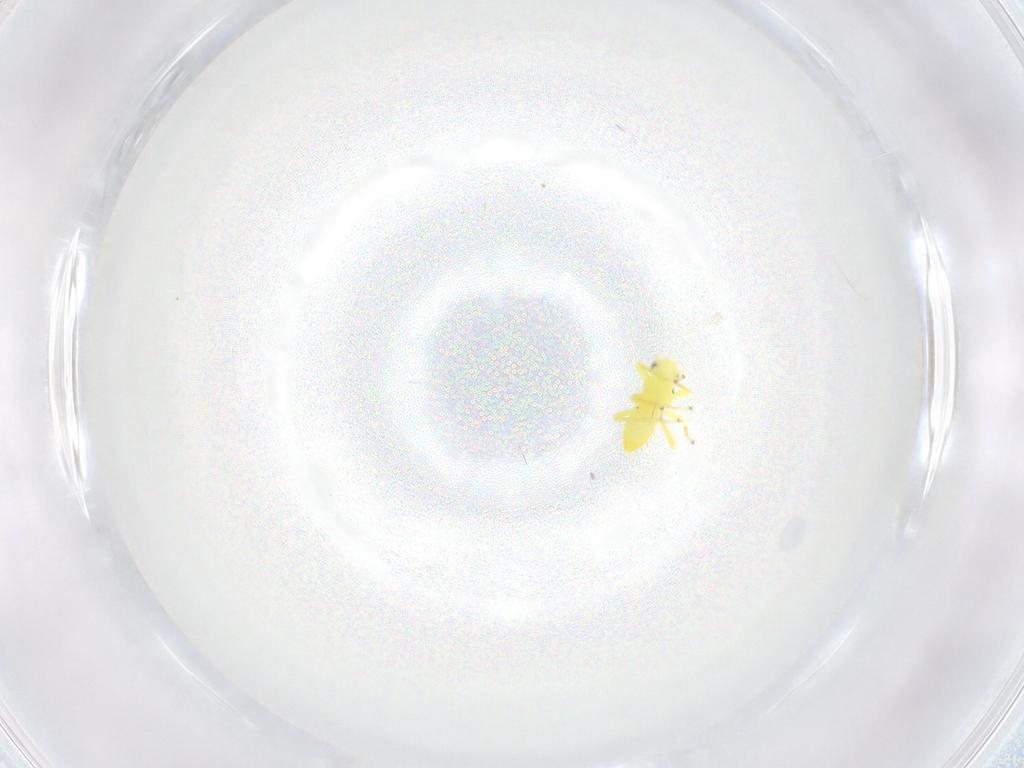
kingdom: Animalia
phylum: Arthropoda
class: Insecta
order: Hemiptera
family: Cicadellidae
